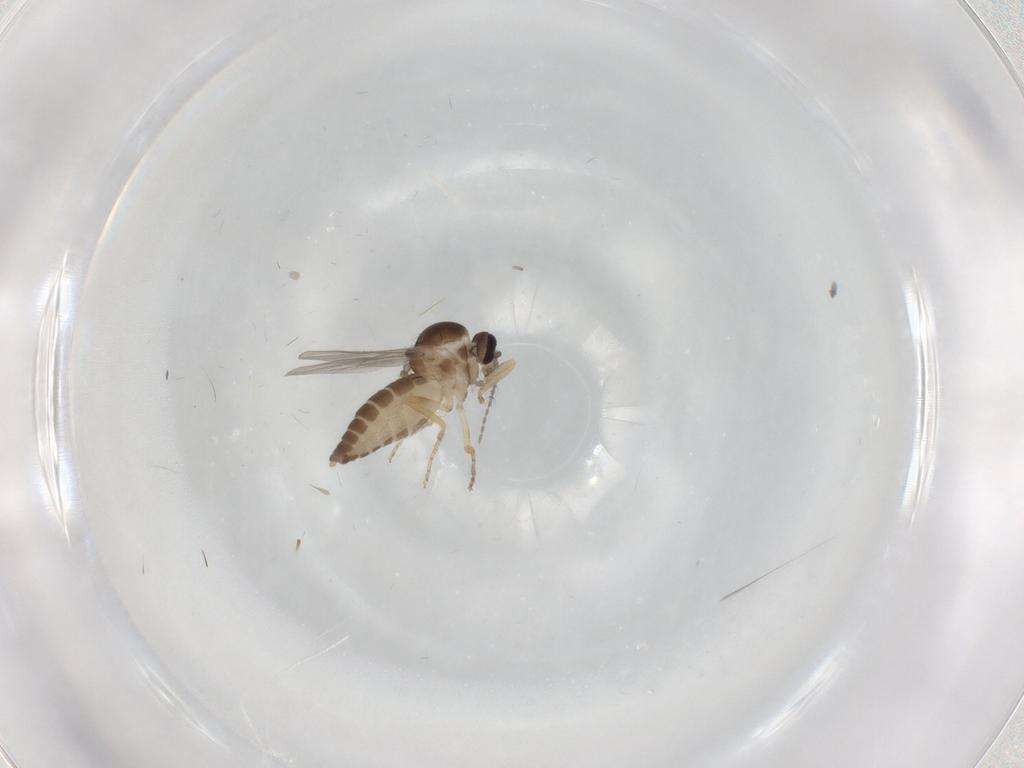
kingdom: Animalia
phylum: Arthropoda
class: Insecta
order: Diptera
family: Ceratopogonidae
